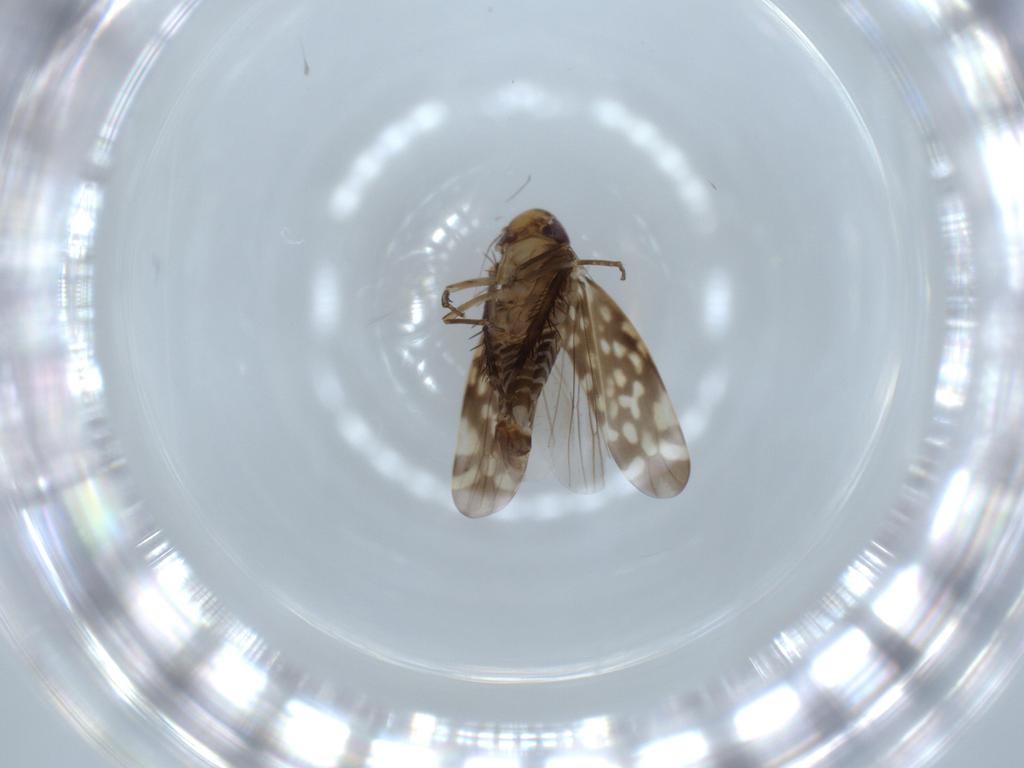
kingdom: Animalia
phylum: Arthropoda
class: Insecta
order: Hemiptera
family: Cicadellidae
